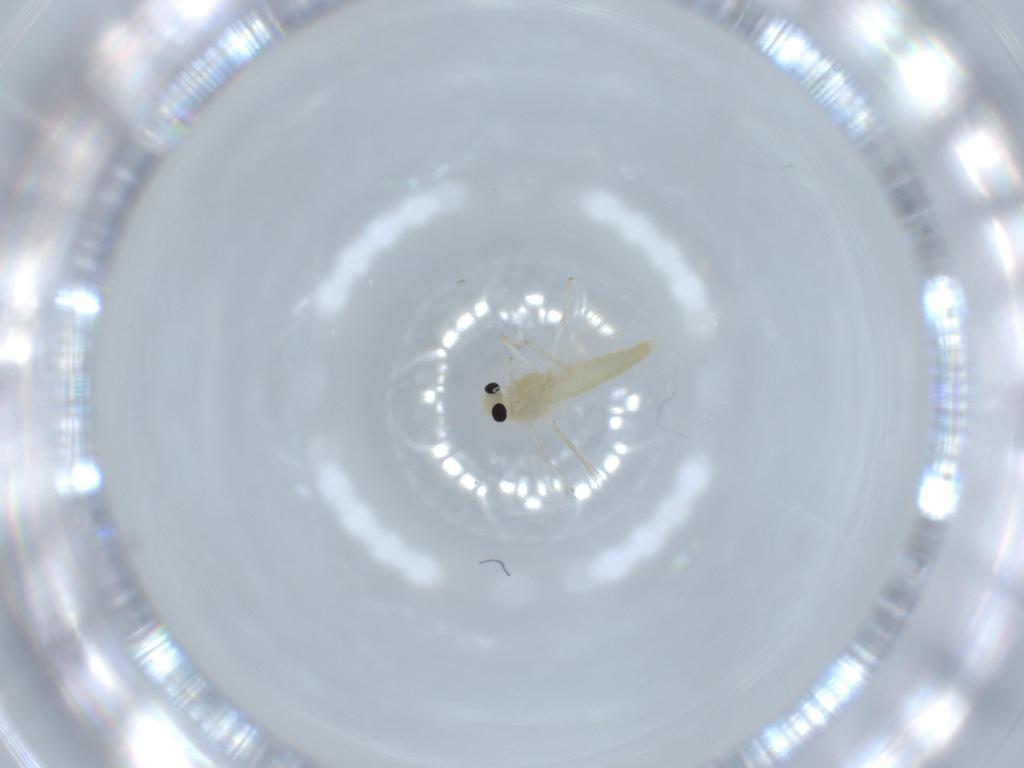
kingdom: Animalia
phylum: Arthropoda
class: Insecta
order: Diptera
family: Chironomidae
